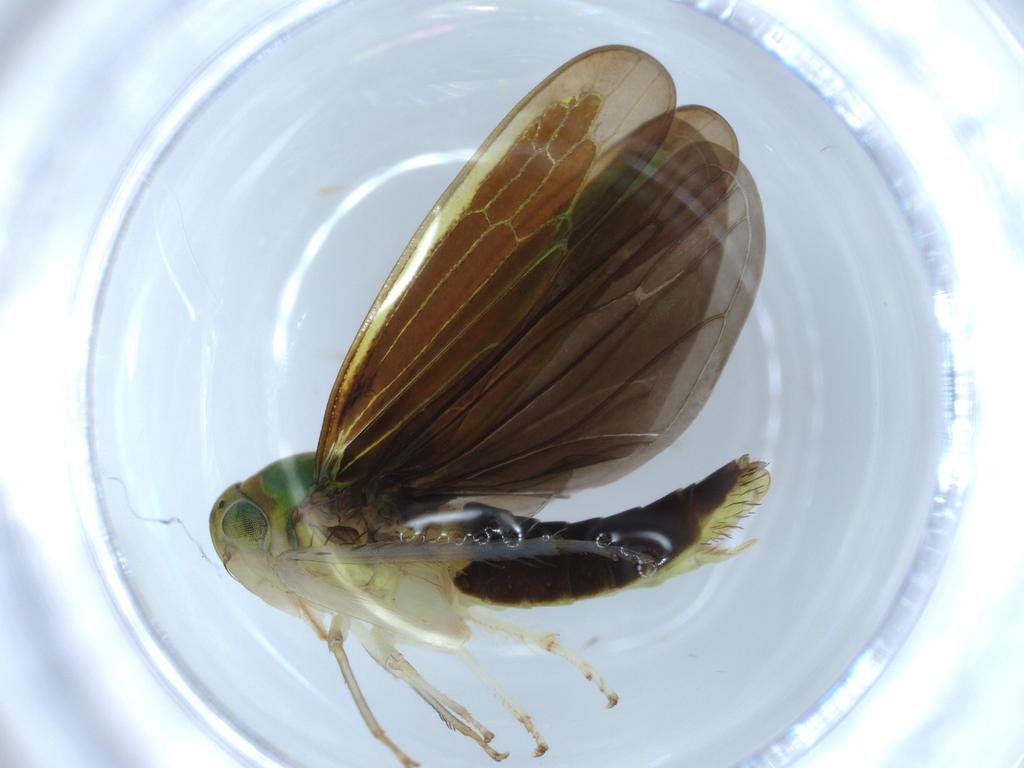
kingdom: Animalia
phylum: Arthropoda
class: Insecta
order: Hemiptera
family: Cicadellidae
